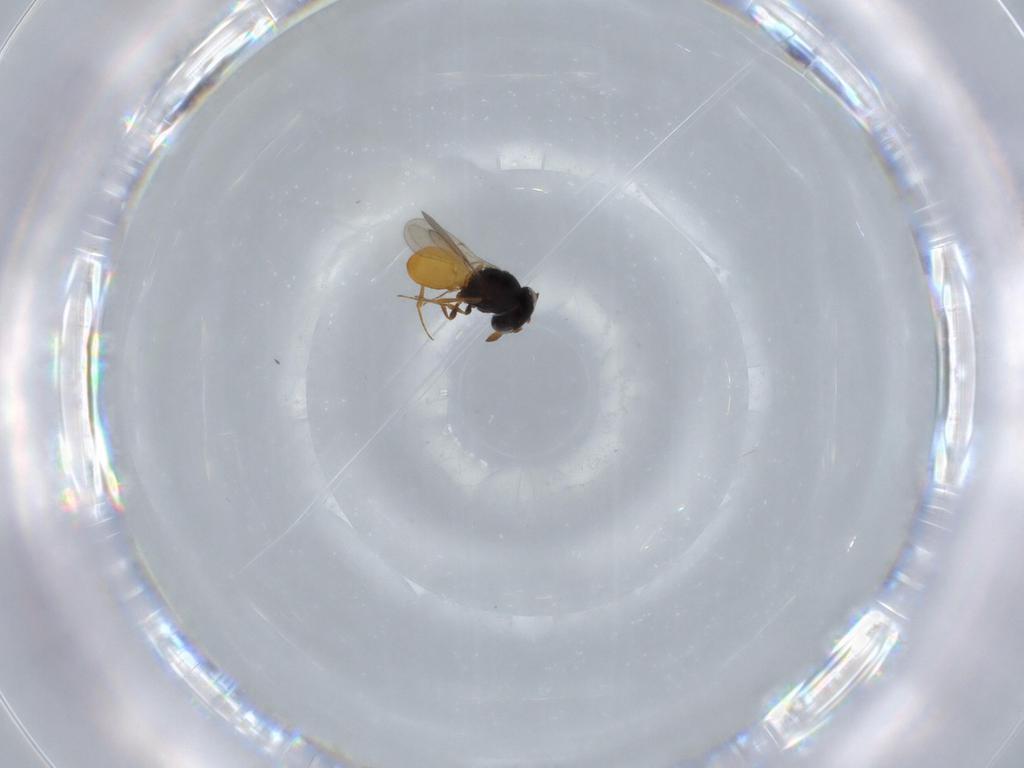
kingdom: Animalia
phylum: Arthropoda
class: Insecta
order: Hymenoptera
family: Scelionidae
